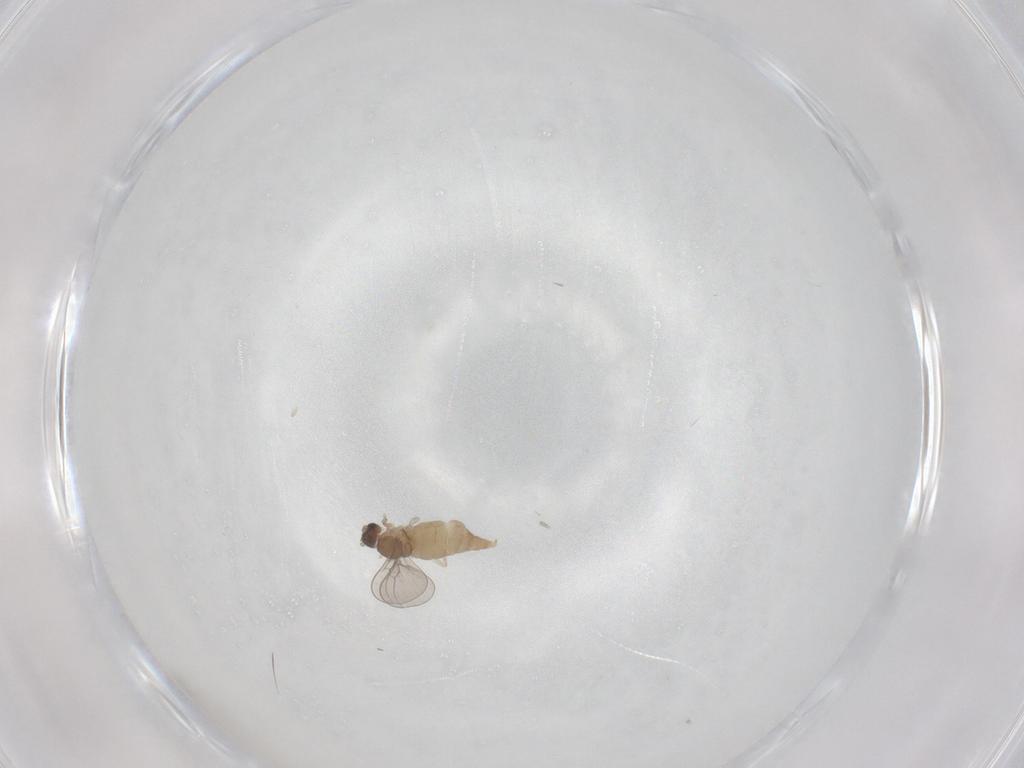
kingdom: Animalia
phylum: Arthropoda
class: Insecta
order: Diptera
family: Cecidomyiidae
